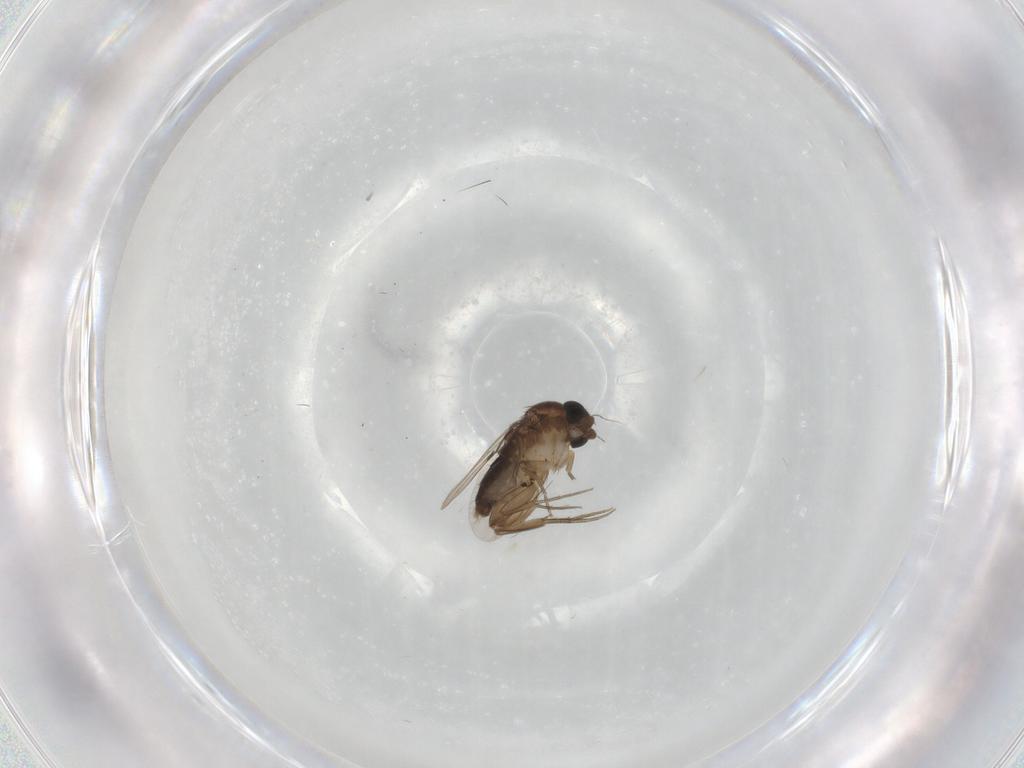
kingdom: Animalia
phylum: Arthropoda
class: Insecta
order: Diptera
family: Phoridae
